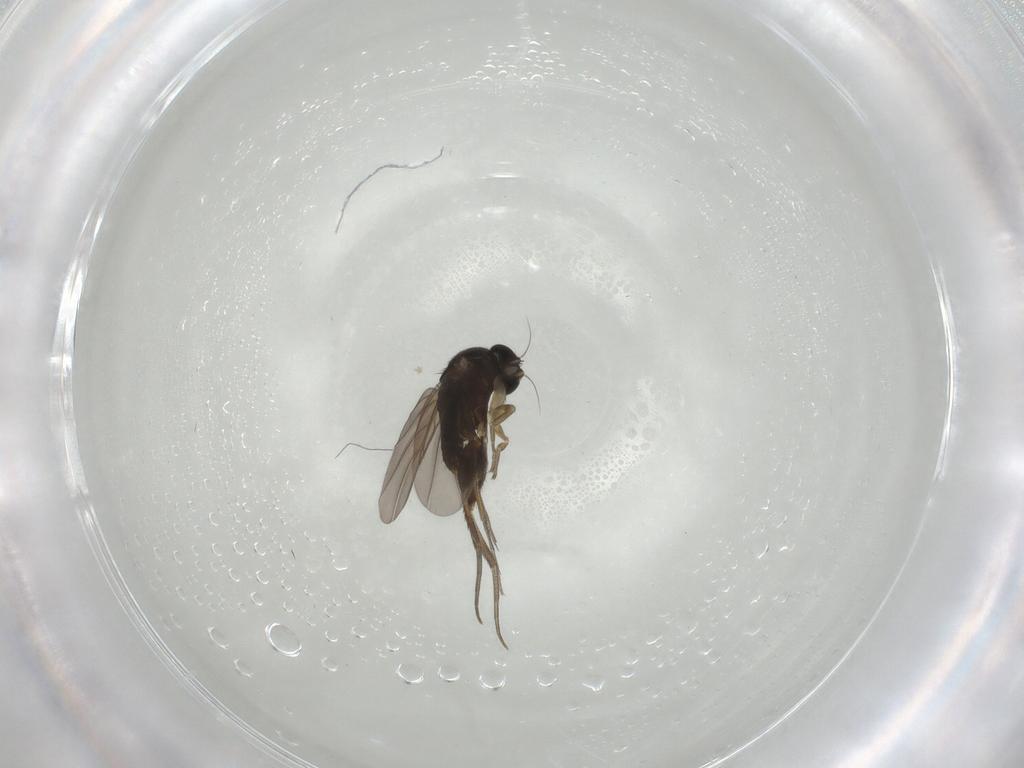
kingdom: Animalia
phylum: Arthropoda
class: Insecta
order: Diptera
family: Phoridae
